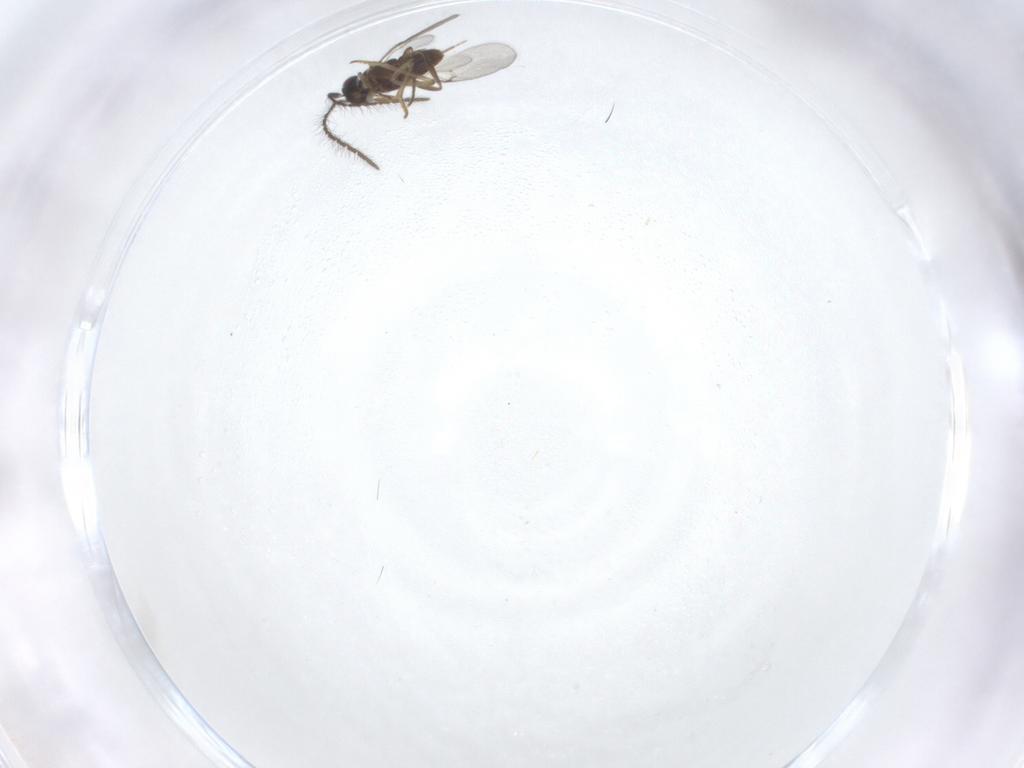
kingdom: Animalia
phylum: Arthropoda
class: Insecta
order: Hymenoptera
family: Encyrtidae
